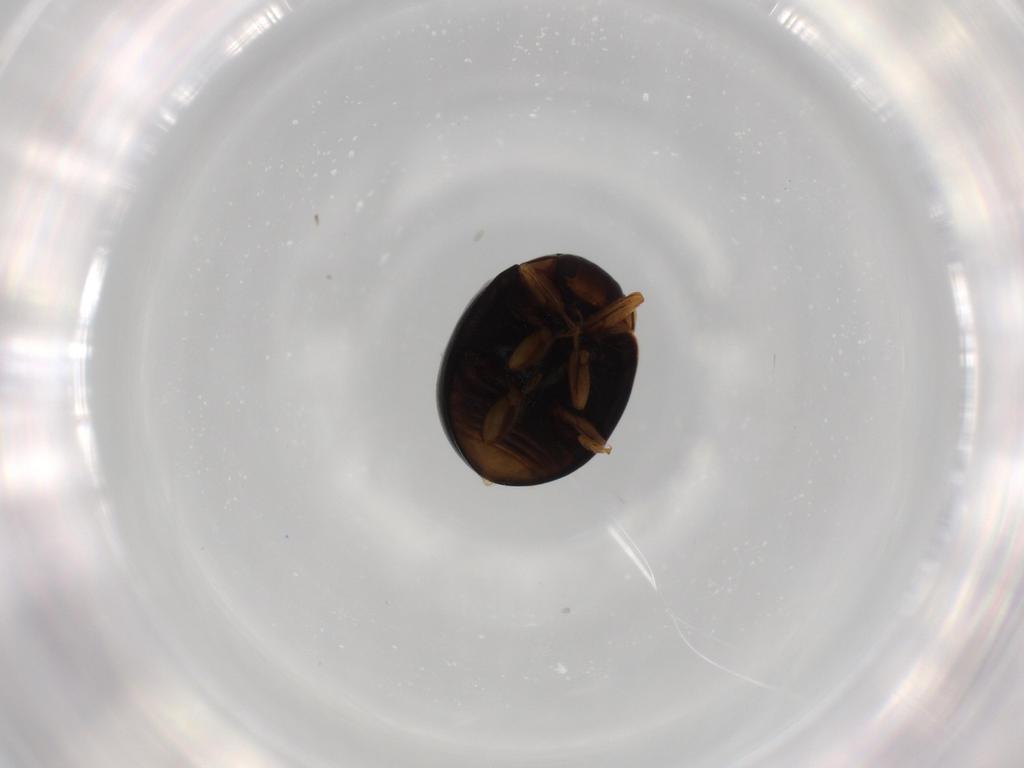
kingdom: Animalia
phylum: Arthropoda
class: Insecta
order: Coleoptera
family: Coccinellidae
